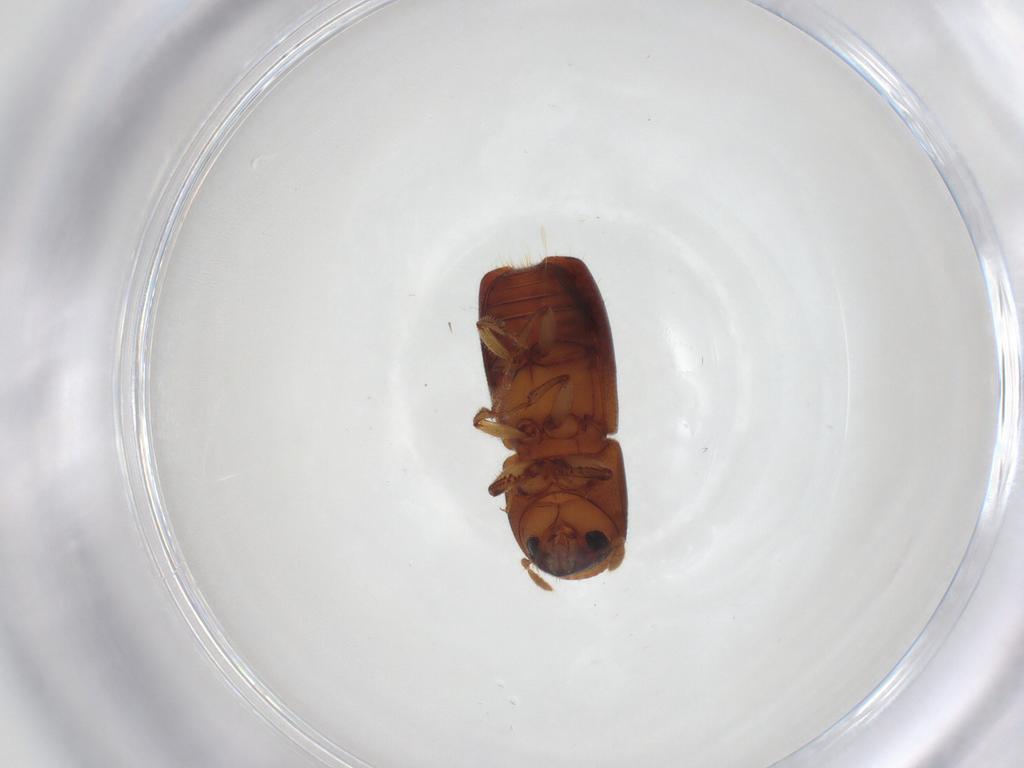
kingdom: Animalia
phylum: Arthropoda
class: Insecta
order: Coleoptera
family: Curculionidae
